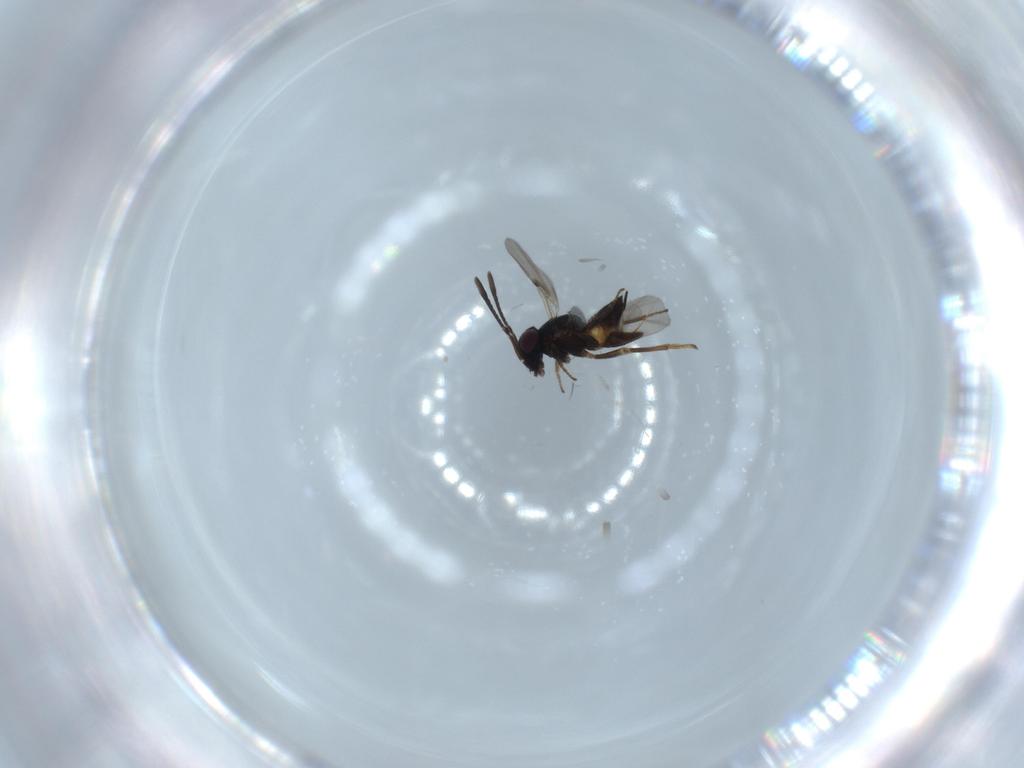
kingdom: Animalia
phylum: Arthropoda
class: Insecta
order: Hymenoptera
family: Encyrtidae
